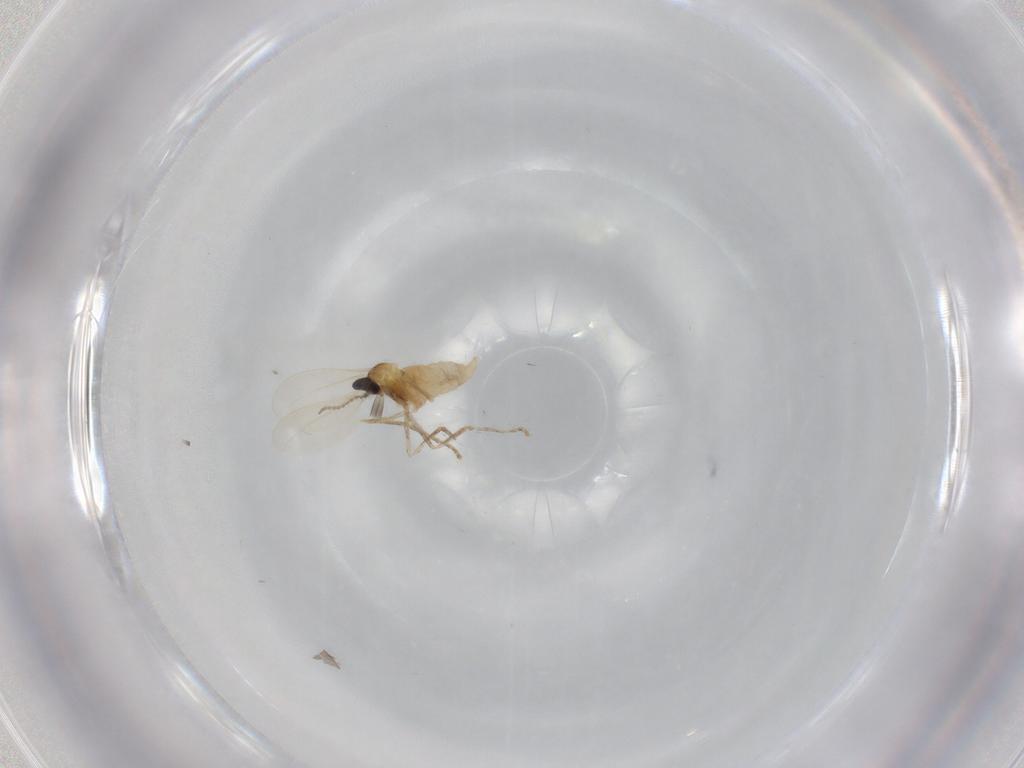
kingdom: Animalia
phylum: Arthropoda
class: Insecta
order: Diptera
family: Cecidomyiidae
